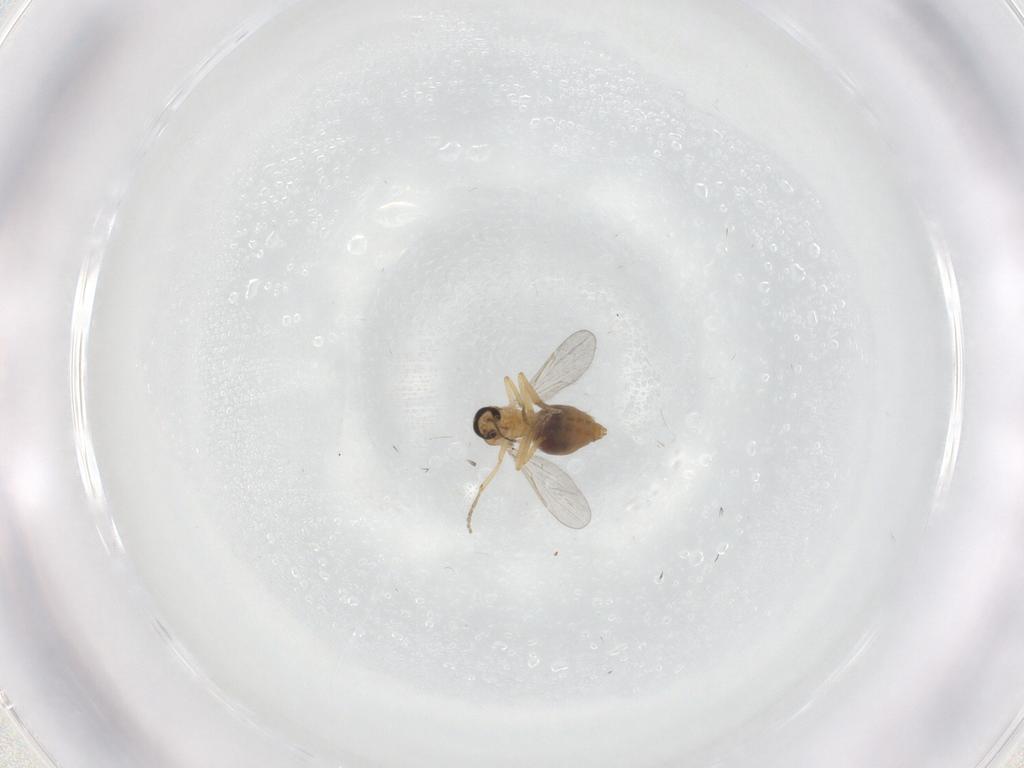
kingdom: Animalia
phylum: Arthropoda
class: Insecta
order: Diptera
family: Ceratopogonidae
